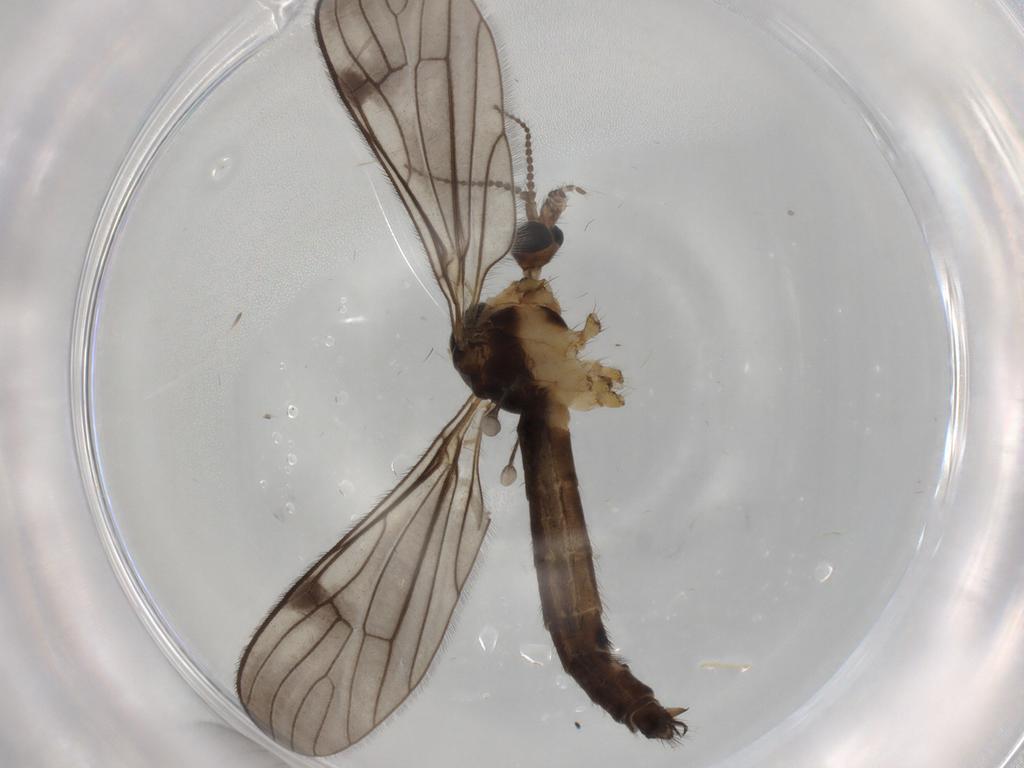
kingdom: Animalia
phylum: Arthropoda
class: Insecta
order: Diptera
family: Limoniidae
